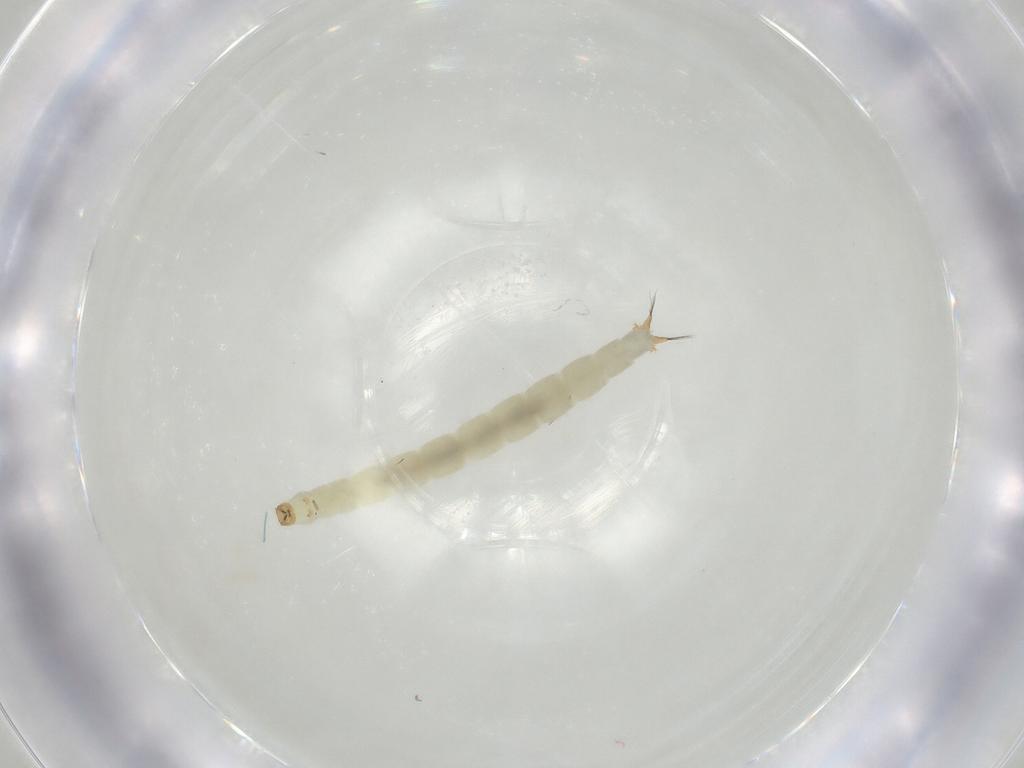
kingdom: Animalia
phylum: Arthropoda
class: Insecta
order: Diptera
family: Chironomidae
